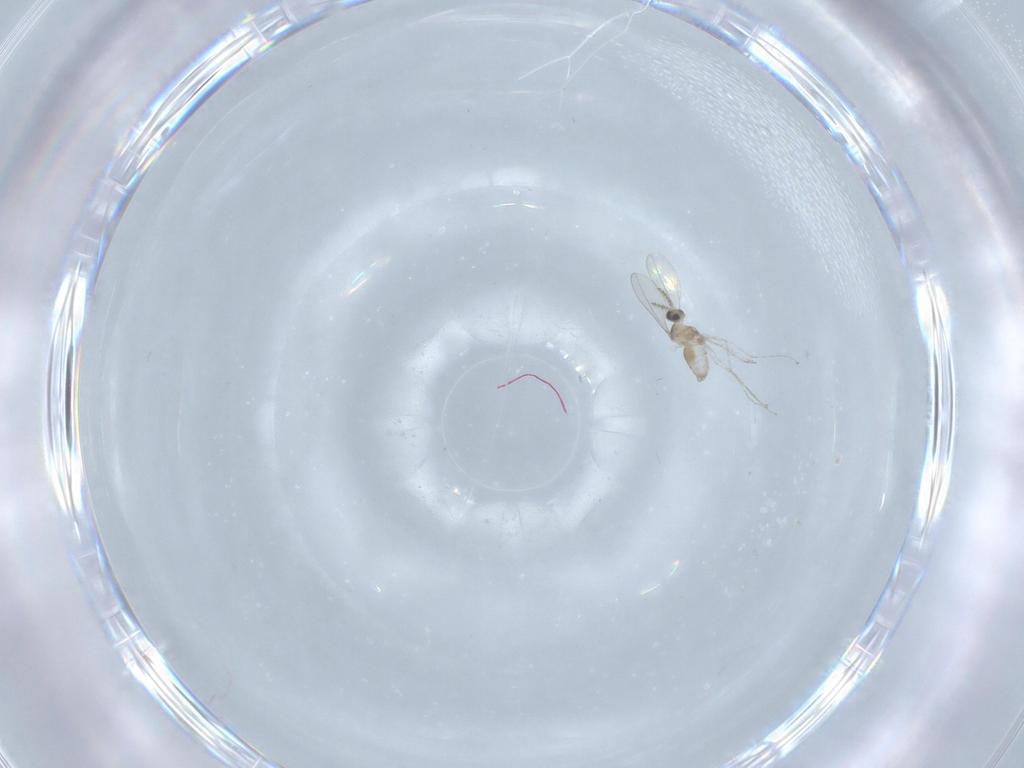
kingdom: Animalia
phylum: Arthropoda
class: Insecta
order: Diptera
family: Cecidomyiidae
